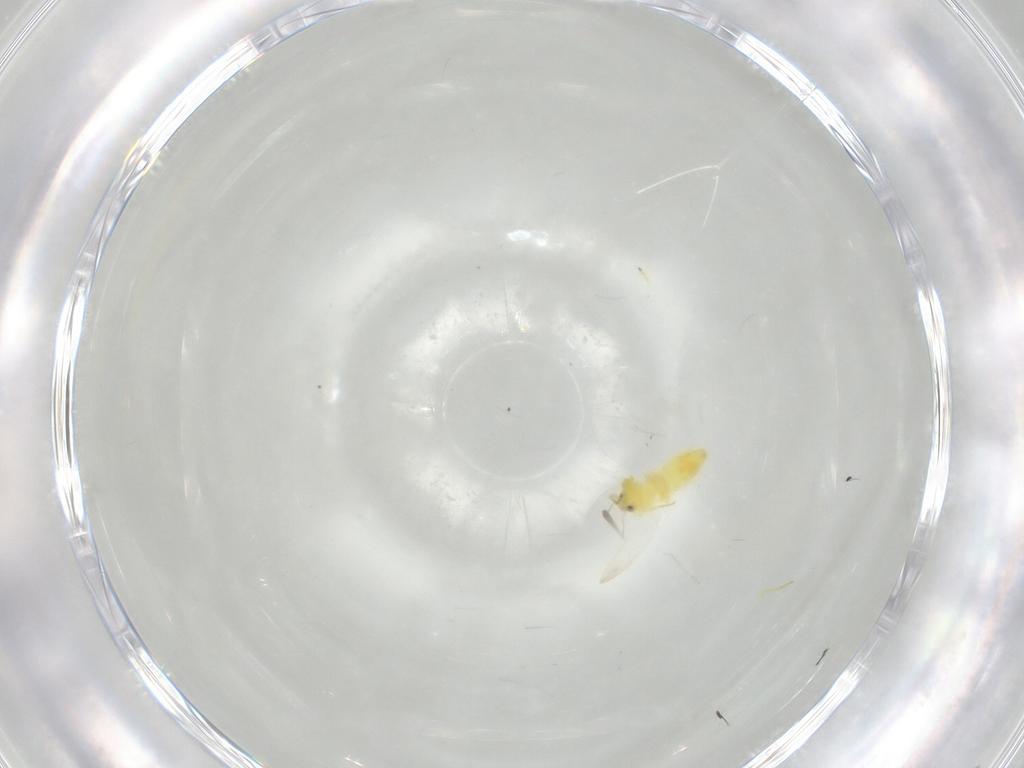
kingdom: Animalia
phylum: Arthropoda
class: Insecta
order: Hemiptera
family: Aleyrodidae
